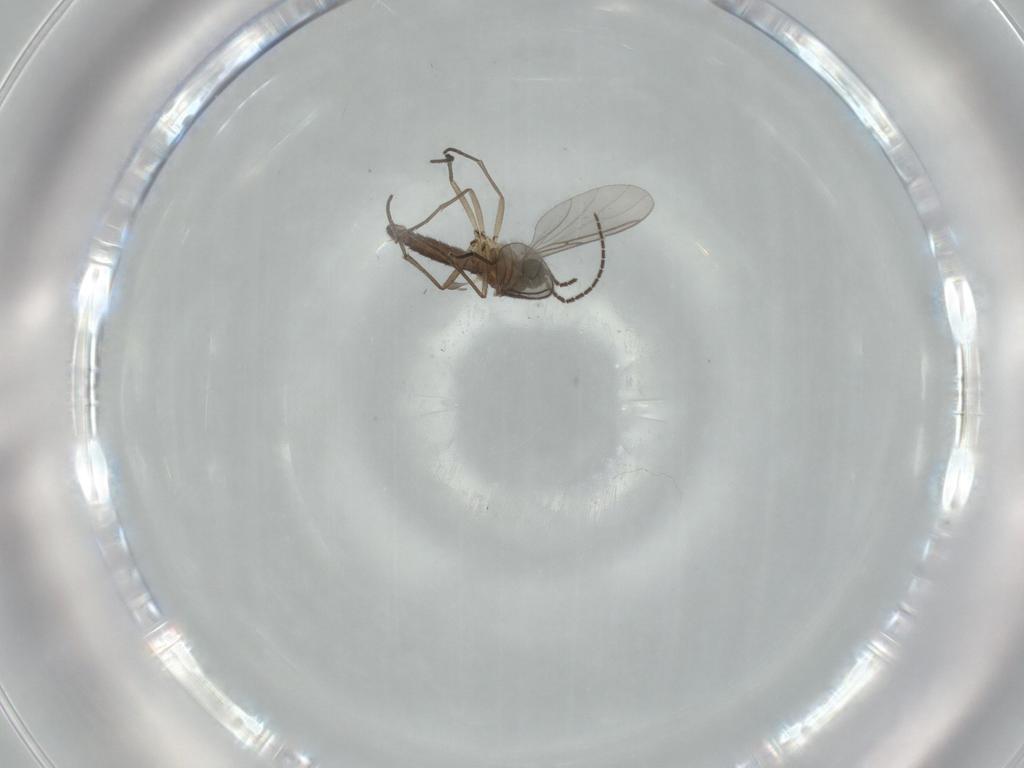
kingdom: Animalia
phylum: Arthropoda
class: Insecta
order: Diptera
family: Sciaridae
